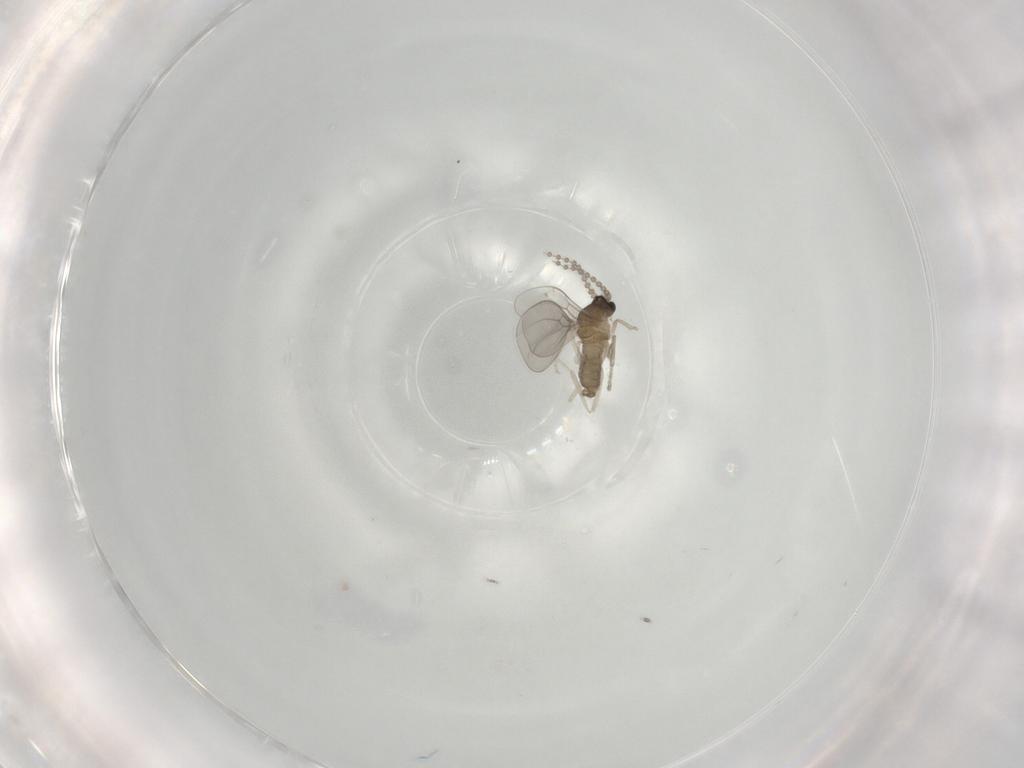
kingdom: Animalia
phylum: Arthropoda
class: Insecta
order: Diptera
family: Cecidomyiidae
